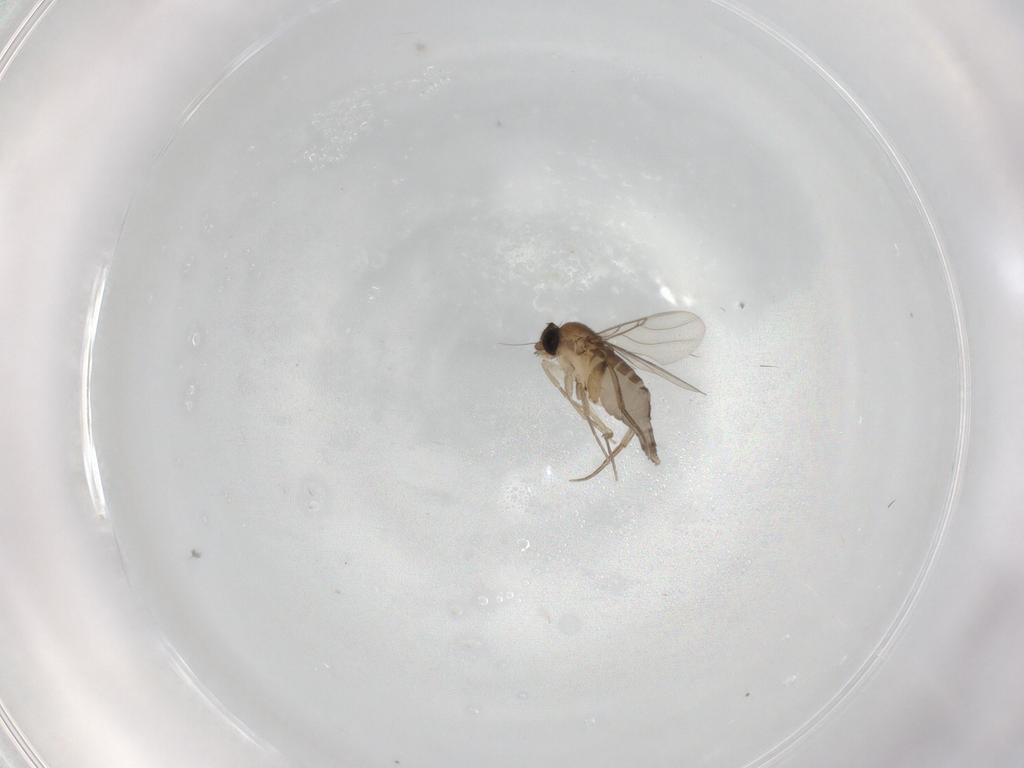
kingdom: Animalia
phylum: Arthropoda
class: Insecta
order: Diptera
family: Phoridae
